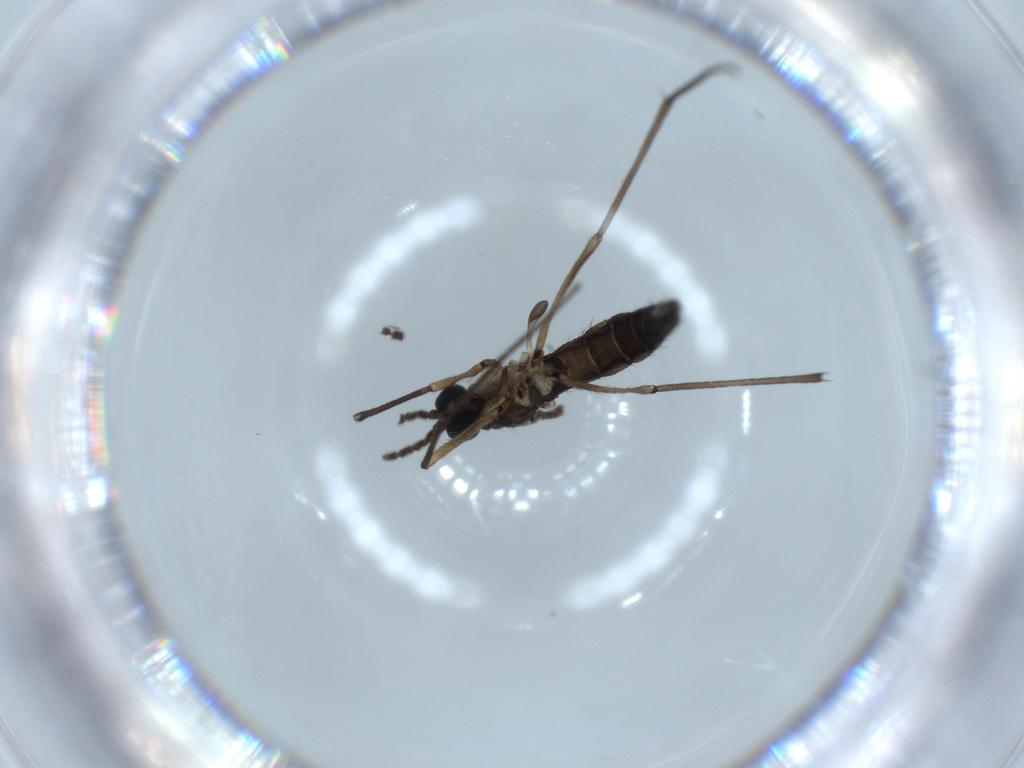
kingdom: Animalia
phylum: Arthropoda
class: Insecta
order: Diptera
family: Sciaridae
